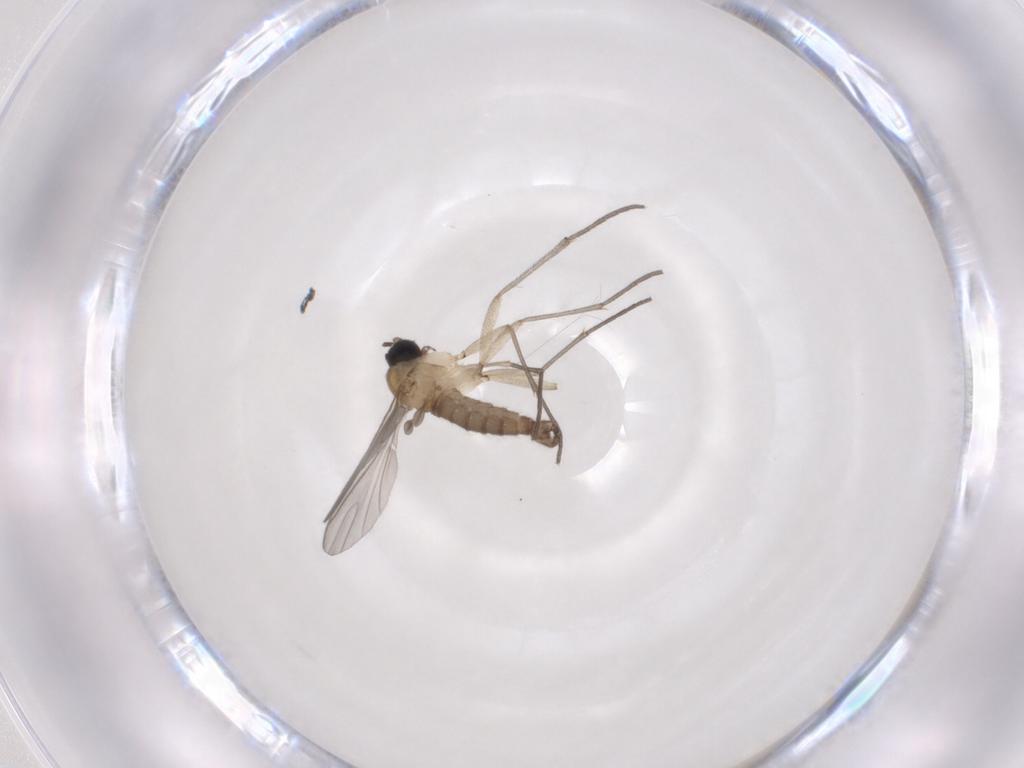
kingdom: Animalia
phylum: Arthropoda
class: Insecta
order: Diptera
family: Sciaridae
